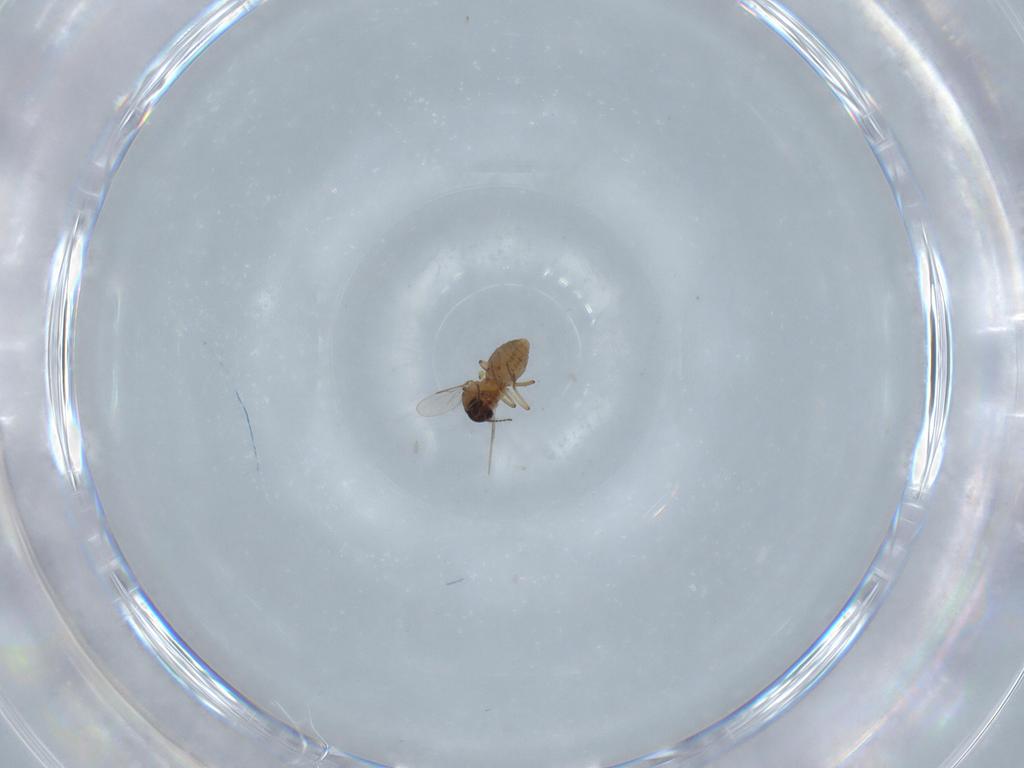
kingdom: Animalia
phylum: Arthropoda
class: Insecta
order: Diptera
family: Ceratopogonidae
